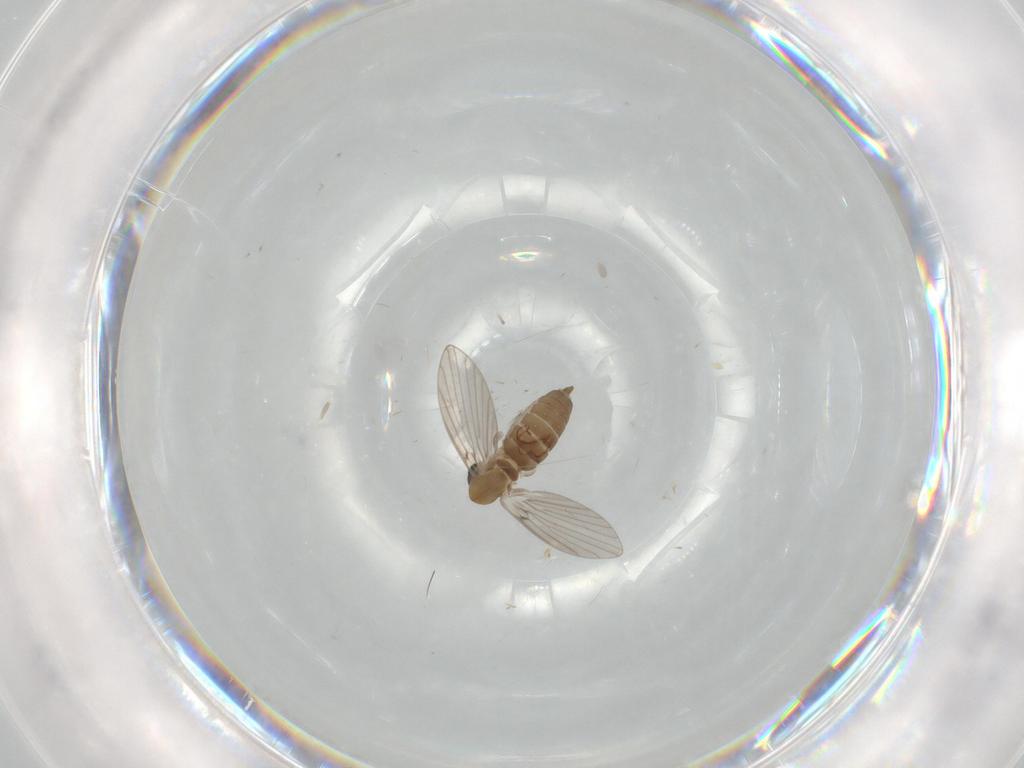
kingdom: Animalia
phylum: Arthropoda
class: Insecta
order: Diptera
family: Psychodidae
